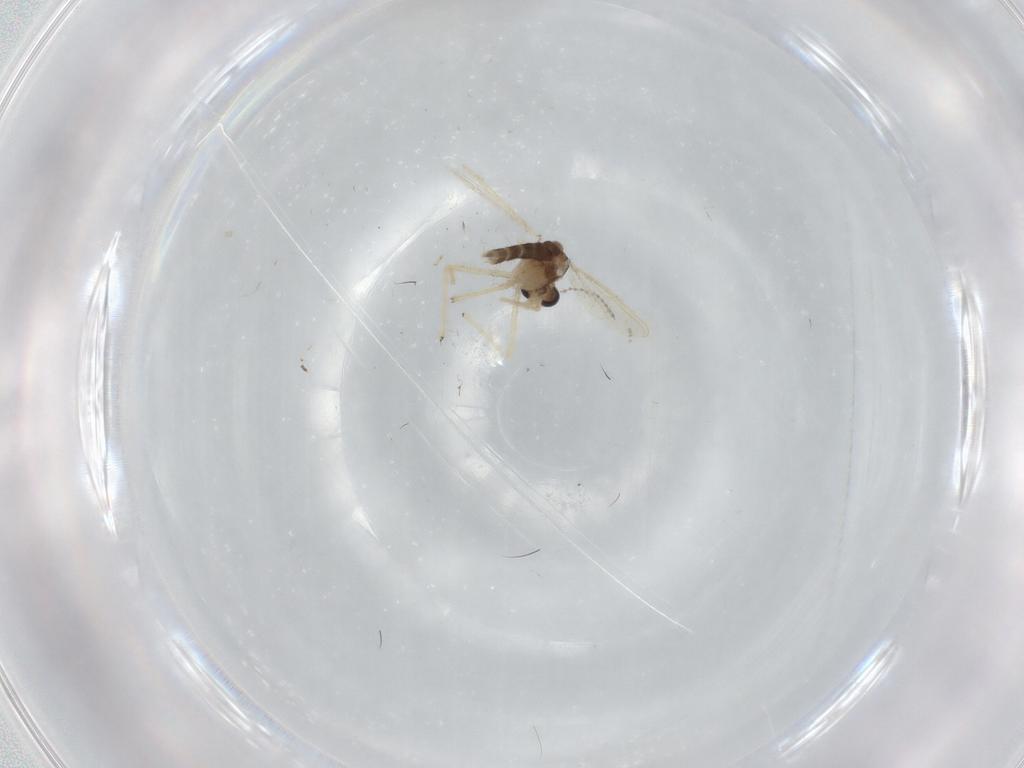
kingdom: Animalia
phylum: Arthropoda
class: Insecta
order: Diptera
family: Chironomidae
